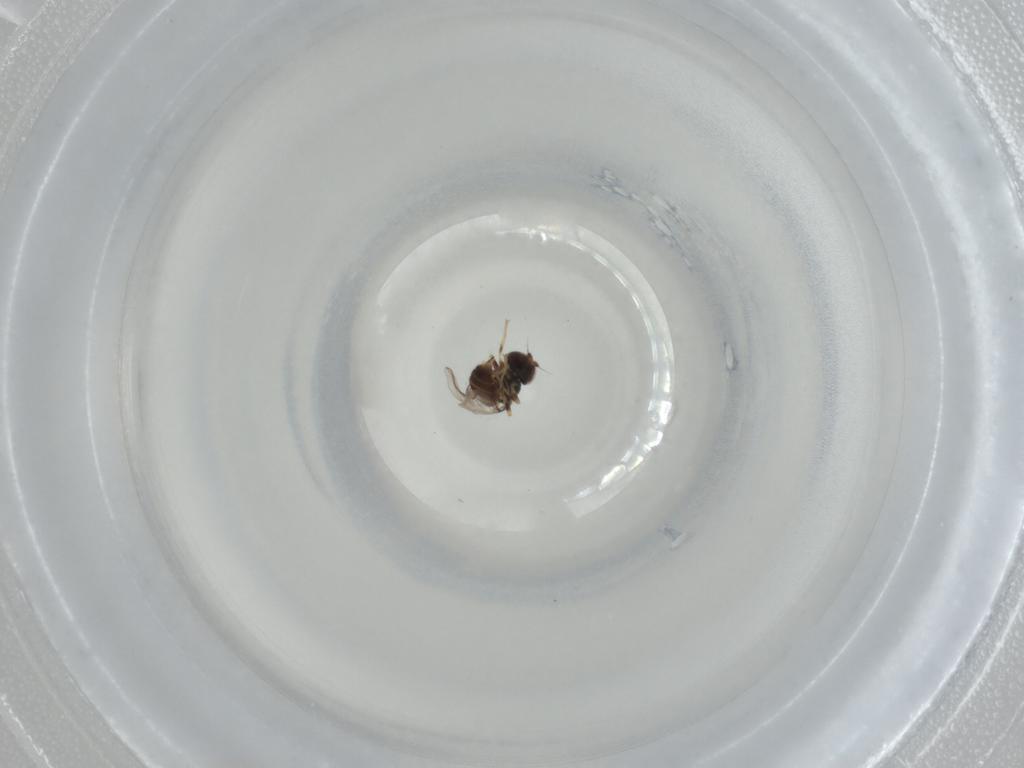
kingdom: Animalia
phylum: Arthropoda
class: Insecta
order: Diptera
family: Chloropidae
